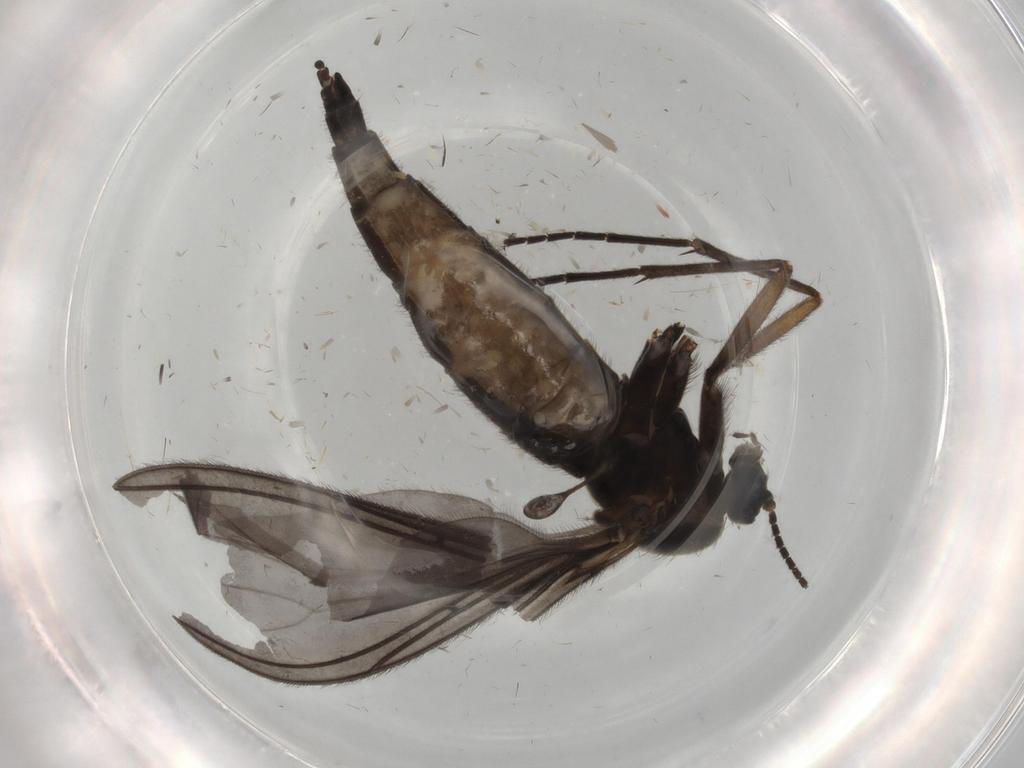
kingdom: Animalia
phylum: Arthropoda
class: Insecta
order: Diptera
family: Sciaridae
